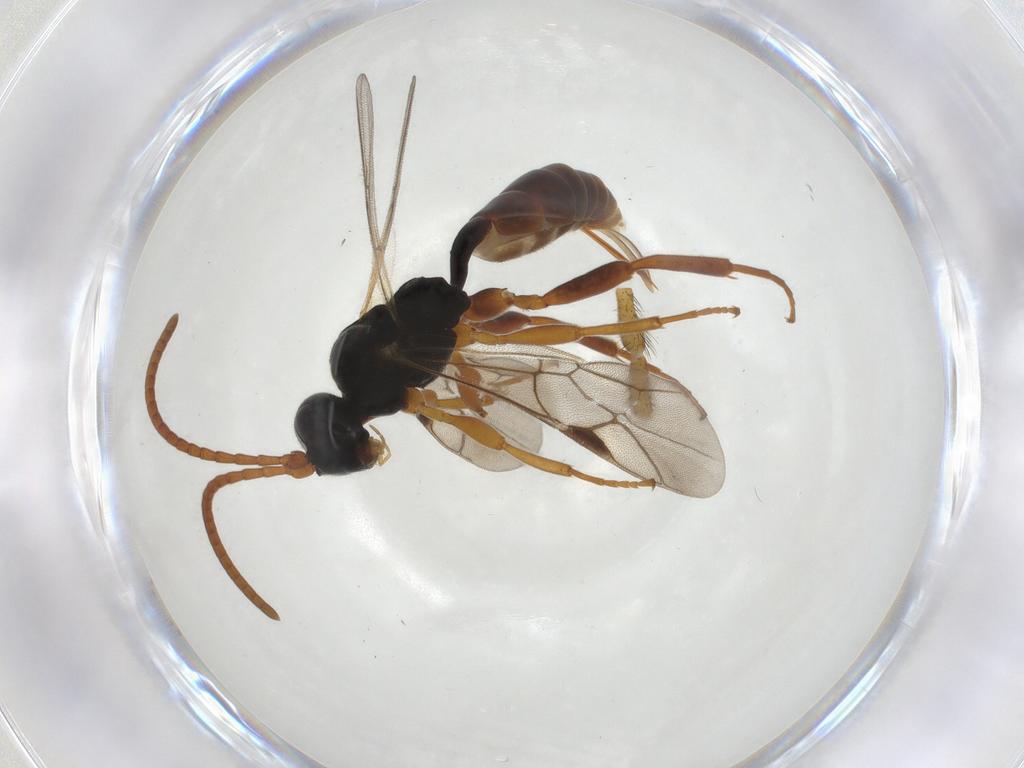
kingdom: Animalia
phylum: Arthropoda
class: Insecta
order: Hymenoptera
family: Ichneumonidae
